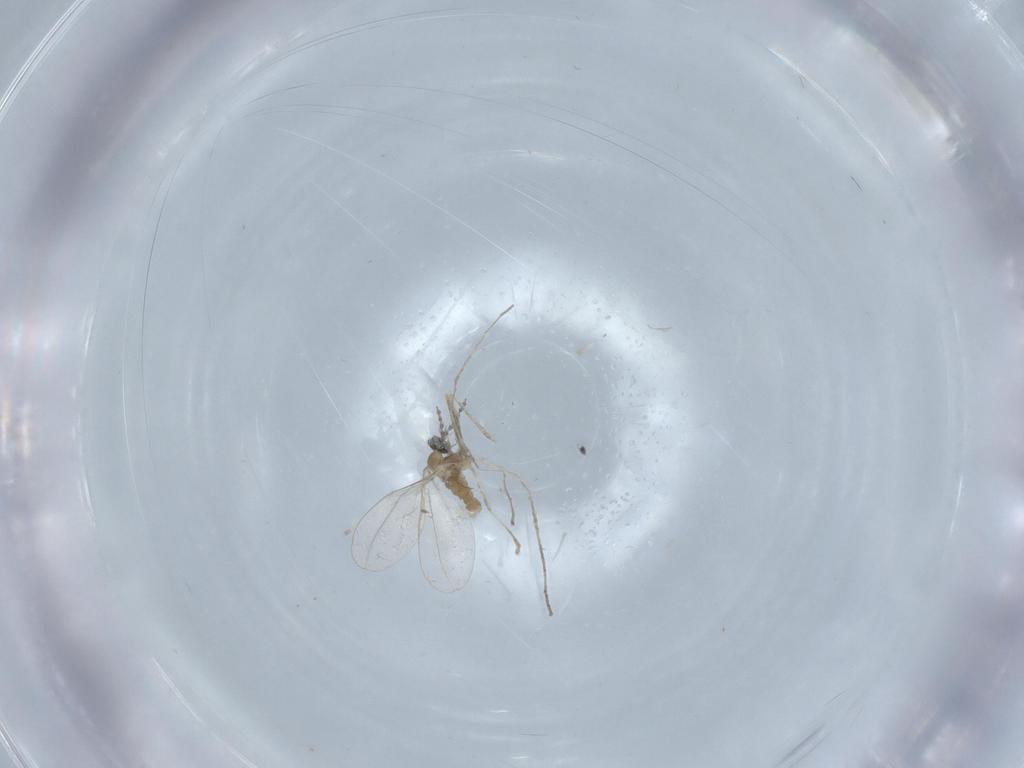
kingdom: Animalia
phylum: Arthropoda
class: Insecta
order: Diptera
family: Cecidomyiidae
